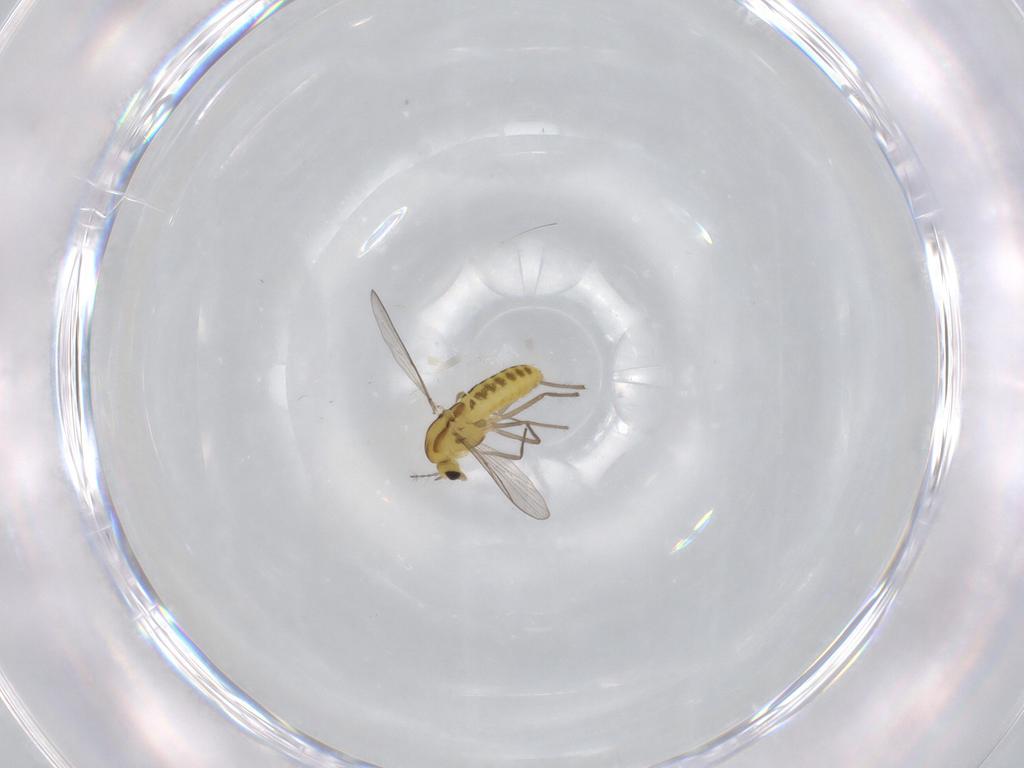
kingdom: Animalia
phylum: Arthropoda
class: Insecta
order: Diptera
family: Chironomidae
